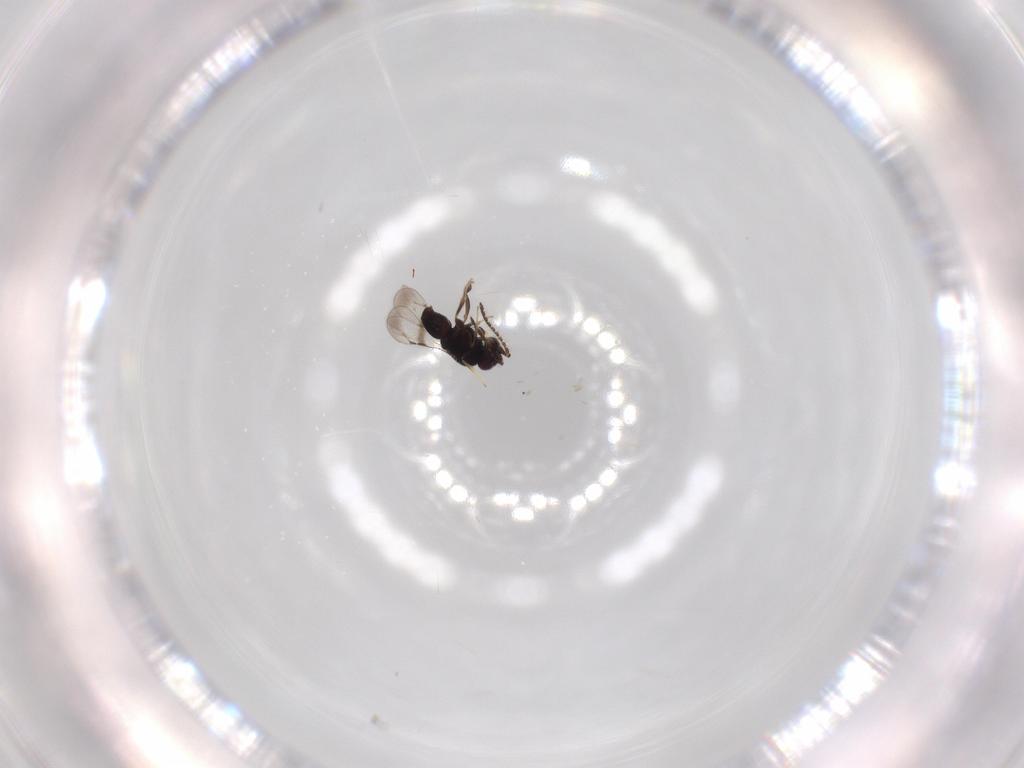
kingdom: Animalia
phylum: Arthropoda
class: Insecta
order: Hymenoptera
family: Ceraphronidae
